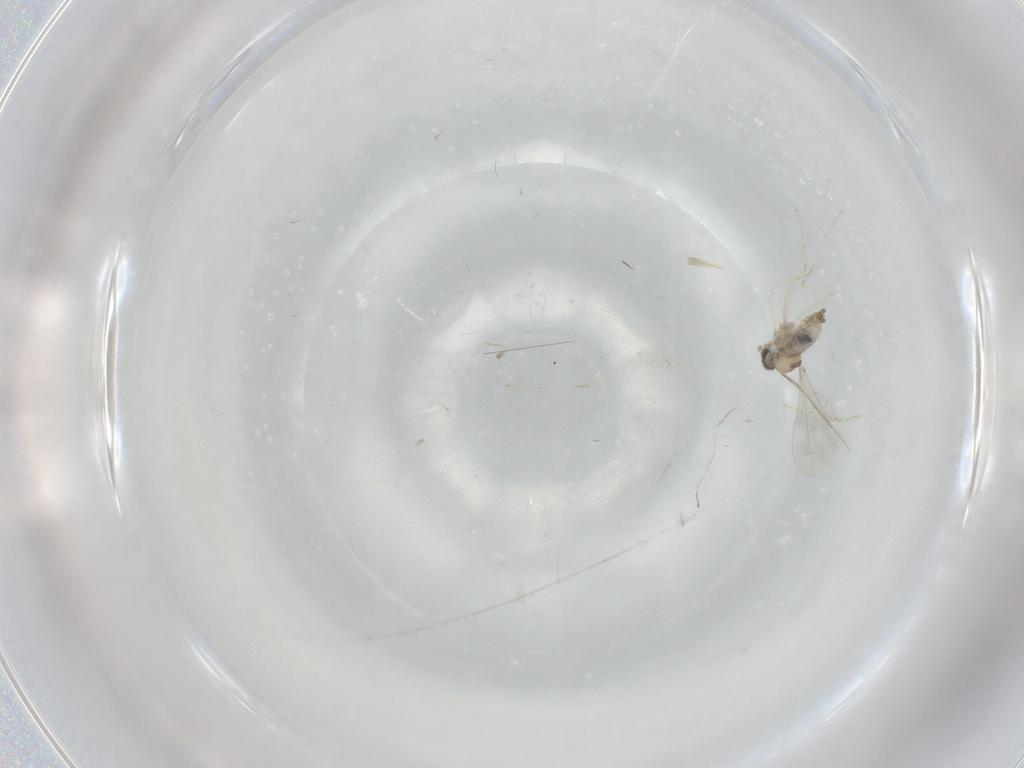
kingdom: Animalia
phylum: Arthropoda
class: Insecta
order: Diptera
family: Cecidomyiidae
